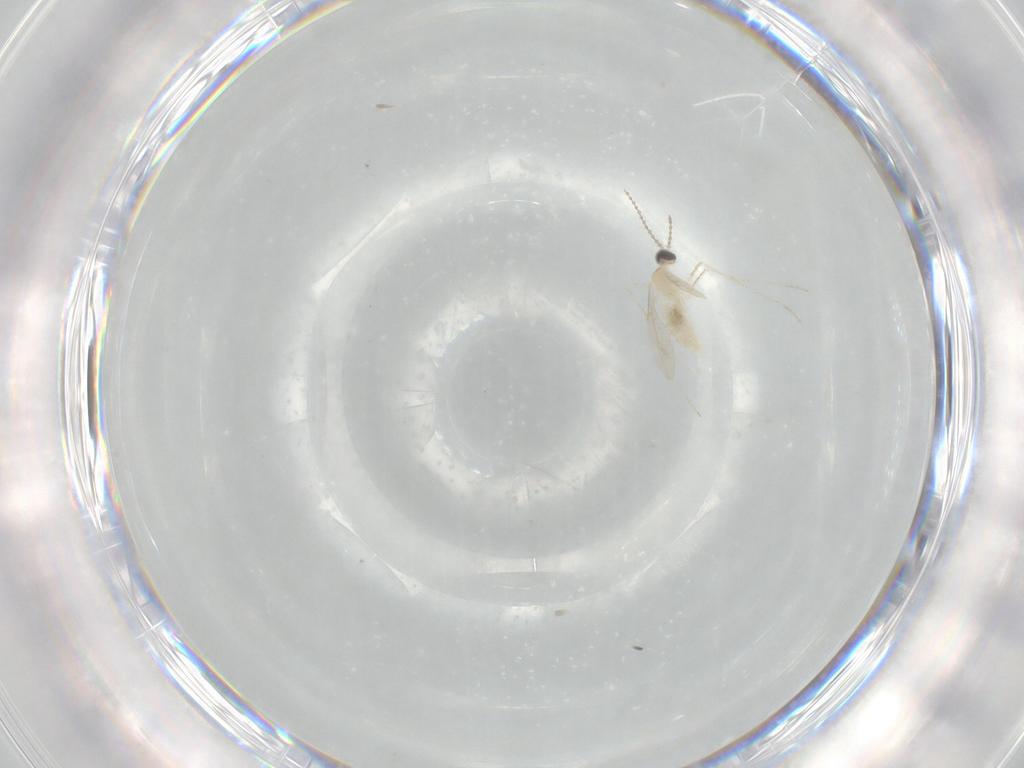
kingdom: Animalia
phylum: Arthropoda
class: Insecta
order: Diptera
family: Cecidomyiidae
